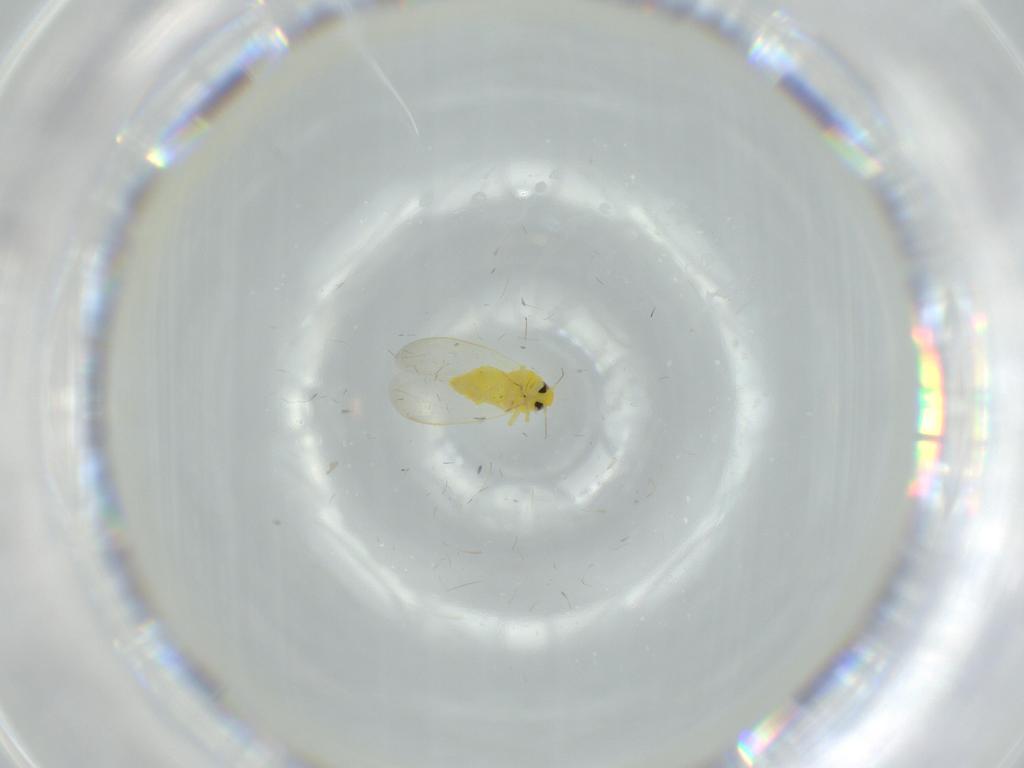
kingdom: Animalia
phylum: Arthropoda
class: Insecta
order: Hemiptera
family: Aleyrodidae
